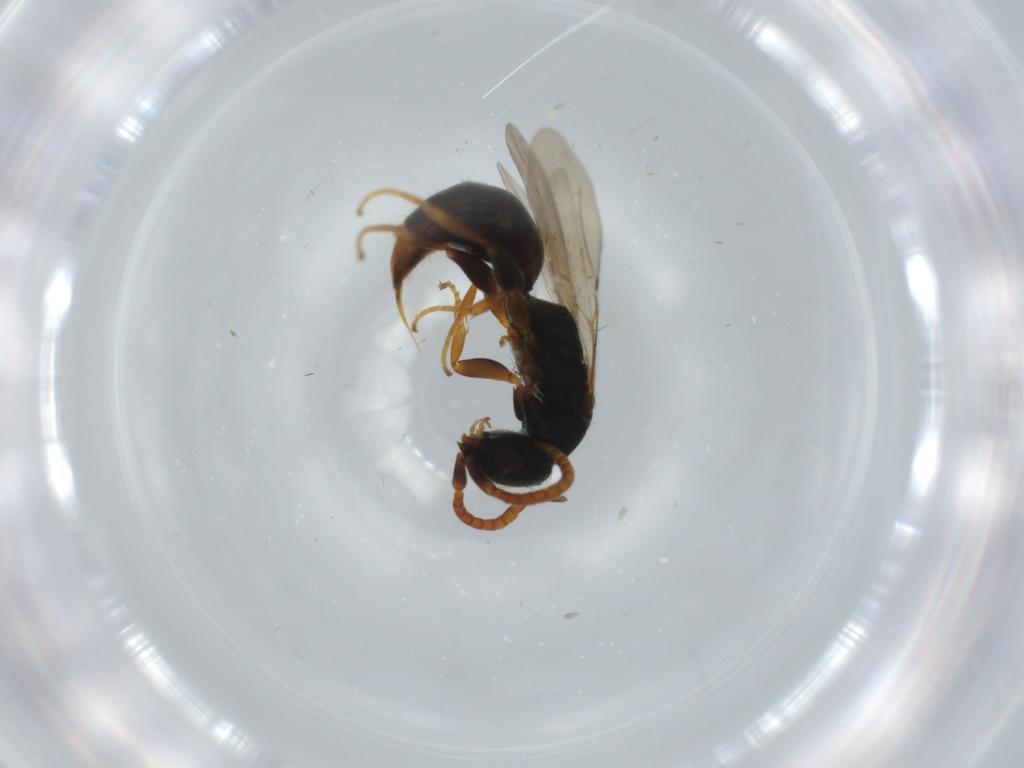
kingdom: Animalia
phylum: Arthropoda
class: Insecta
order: Hymenoptera
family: Bethylidae
